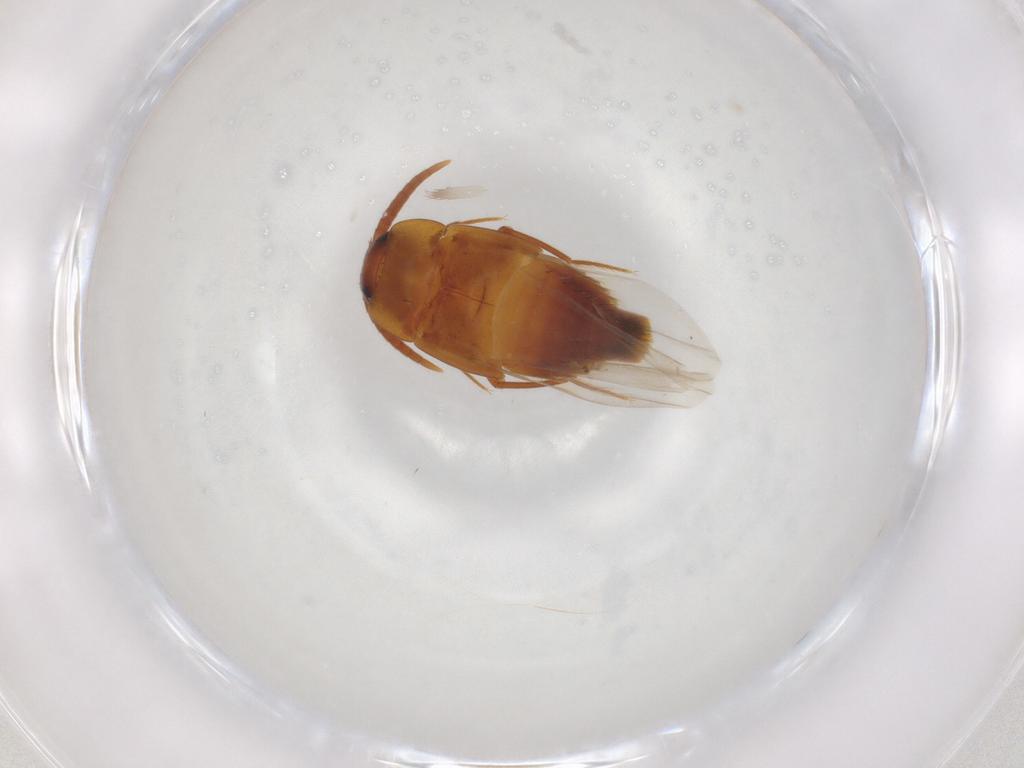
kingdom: Animalia
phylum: Arthropoda
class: Insecta
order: Coleoptera
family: Staphylinidae
